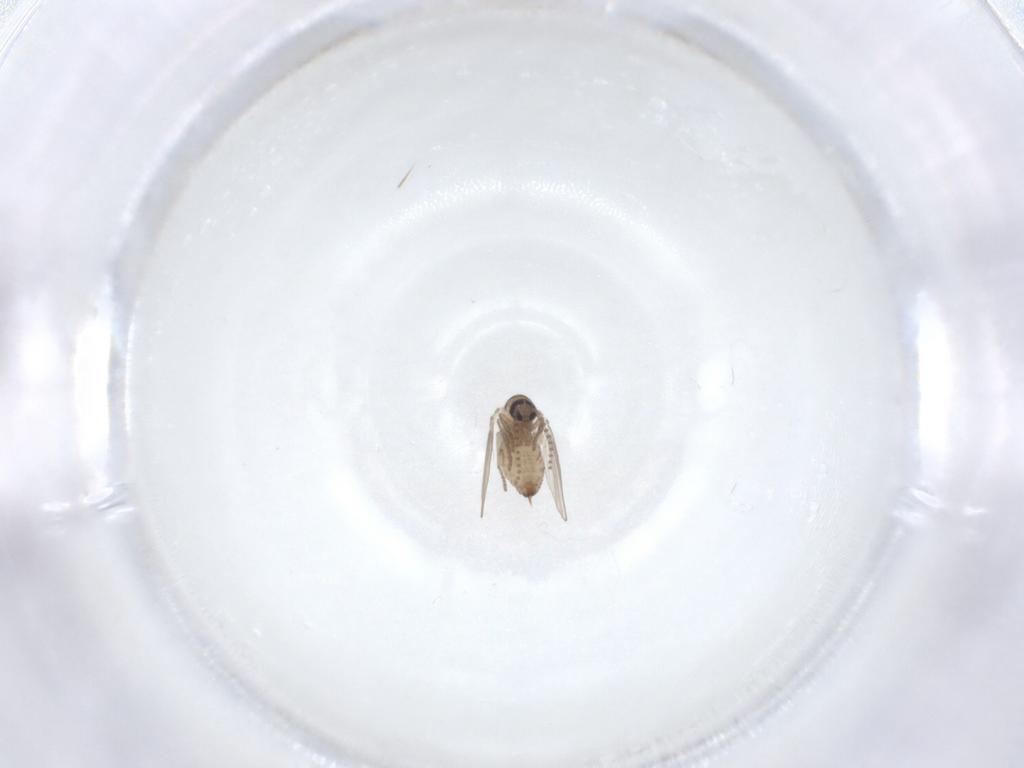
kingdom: Animalia
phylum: Arthropoda
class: Insecta
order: Diptera
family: Psychodidae
